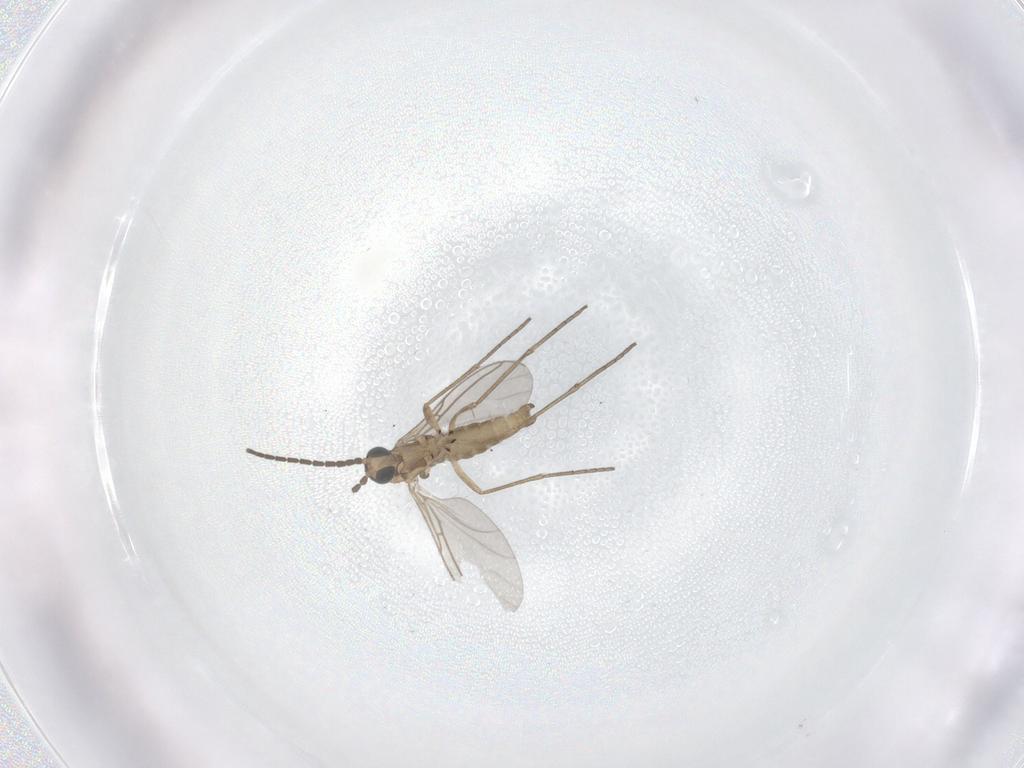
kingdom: Animalia
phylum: Arthropoda
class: Insecta
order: Diptera
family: Sciaridae
